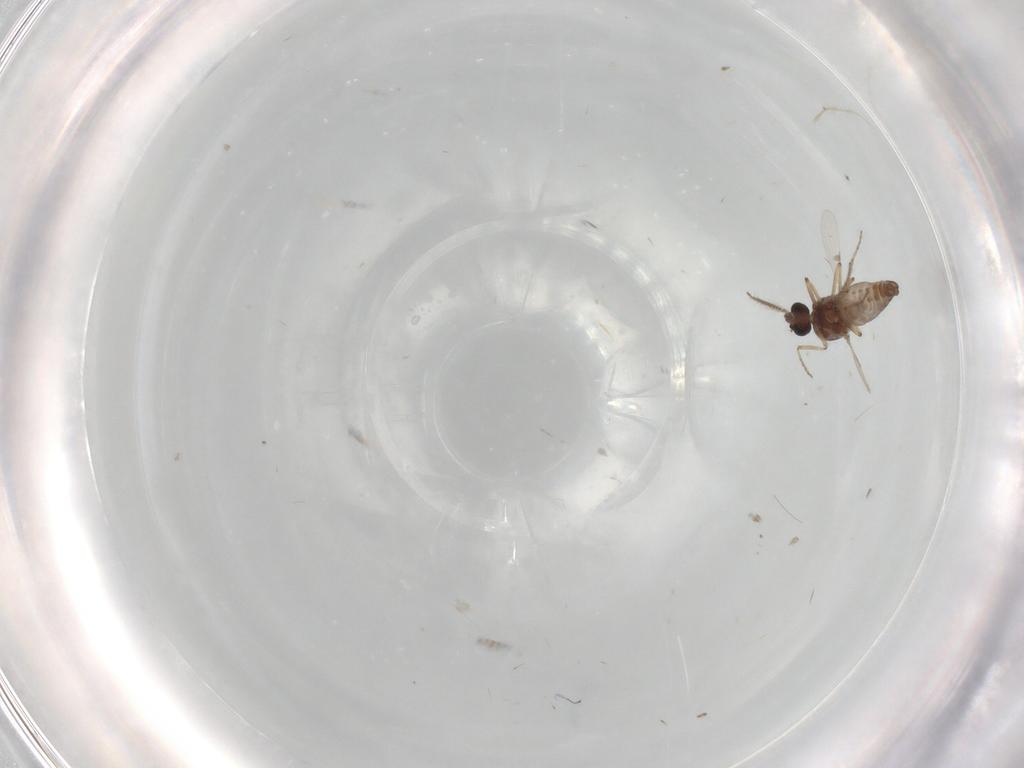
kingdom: Animalia
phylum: Arthropoda
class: Insecta
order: Diptera
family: Ceratopogonidae
